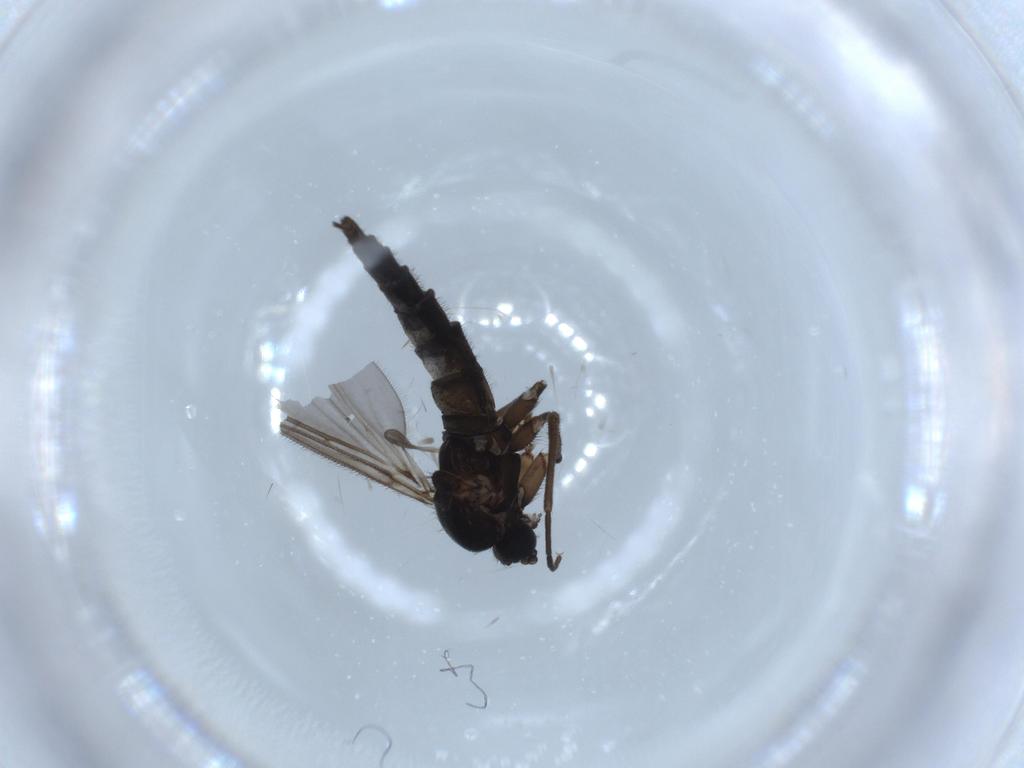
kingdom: Animalia
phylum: Arthropoda
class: Insecta
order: Diptera
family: Sciaridae
